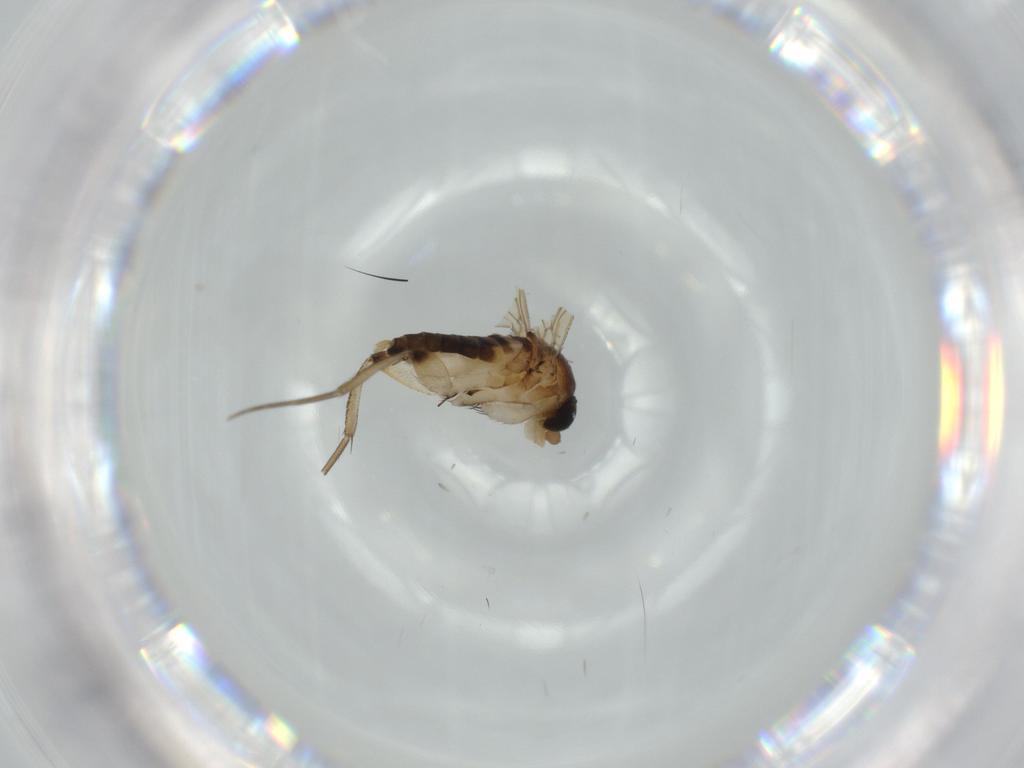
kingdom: Animalia
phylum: Arthropoda
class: Insecta
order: Diptera
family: Phoridae
